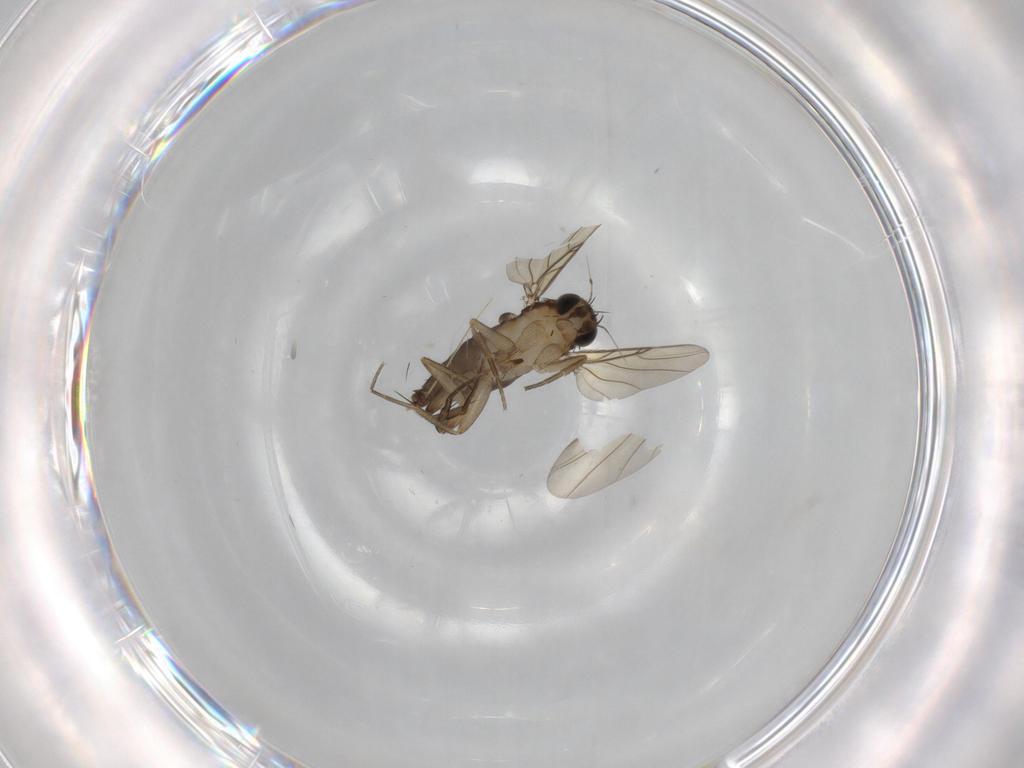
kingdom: Animalia
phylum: Arthropoda
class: Insecta
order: Diptera
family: Phoridae
